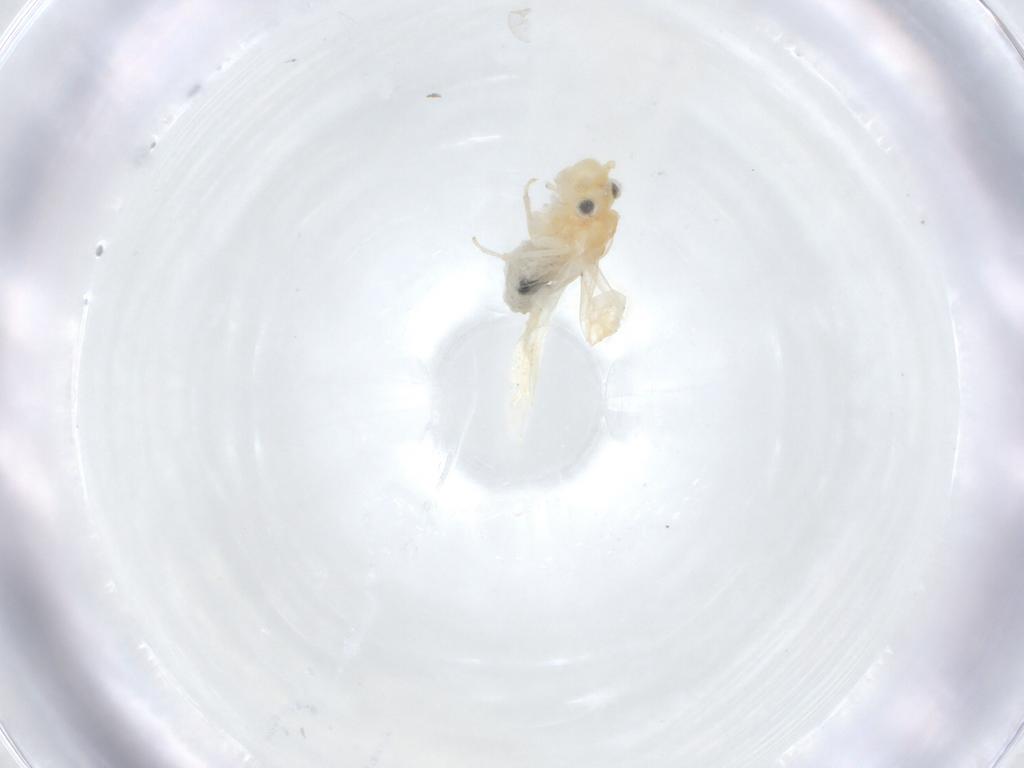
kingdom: Animalia
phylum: Arthropoda
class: Insecta
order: Psocodea
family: Caeciliusidae
